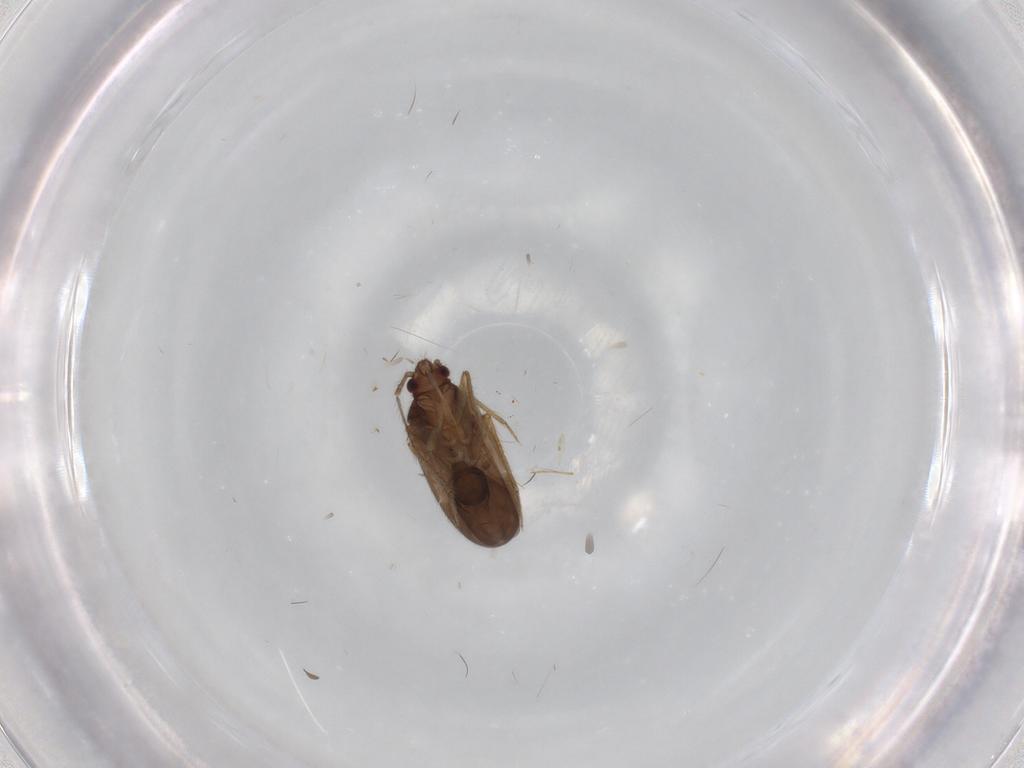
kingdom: Animalia
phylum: Arthropoda
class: Insecta
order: Hemiptera
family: Ceratocombidae
